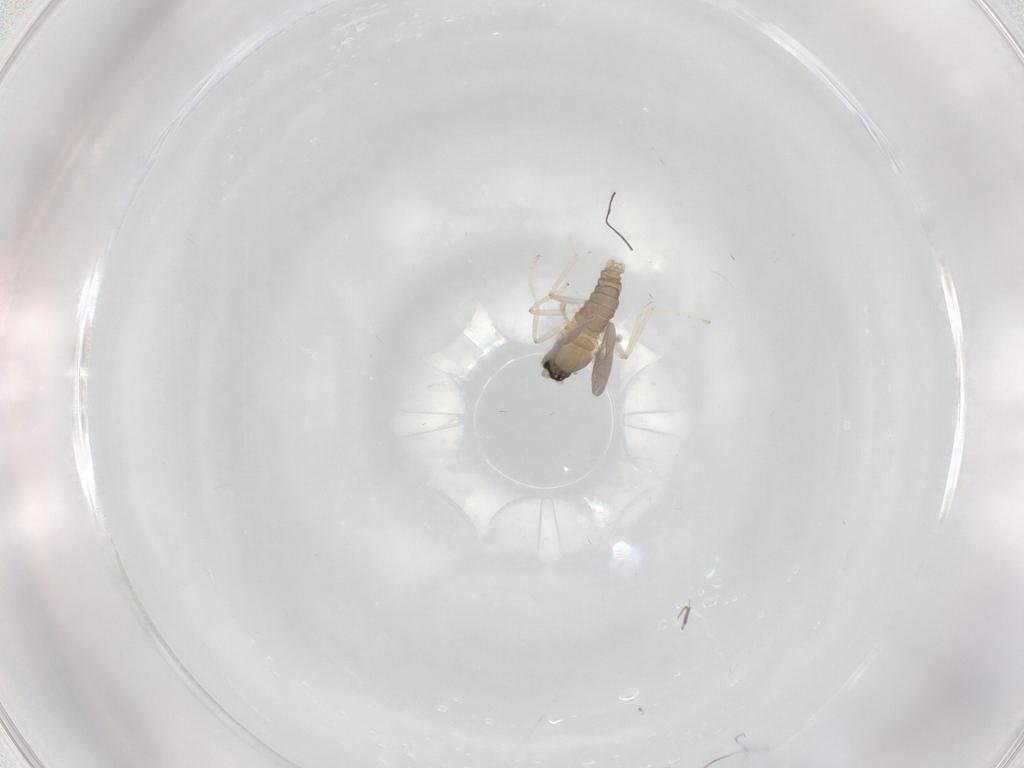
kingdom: Animalia
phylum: Arthropoda
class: Insecta
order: Diptera
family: Cecidomyiidae
